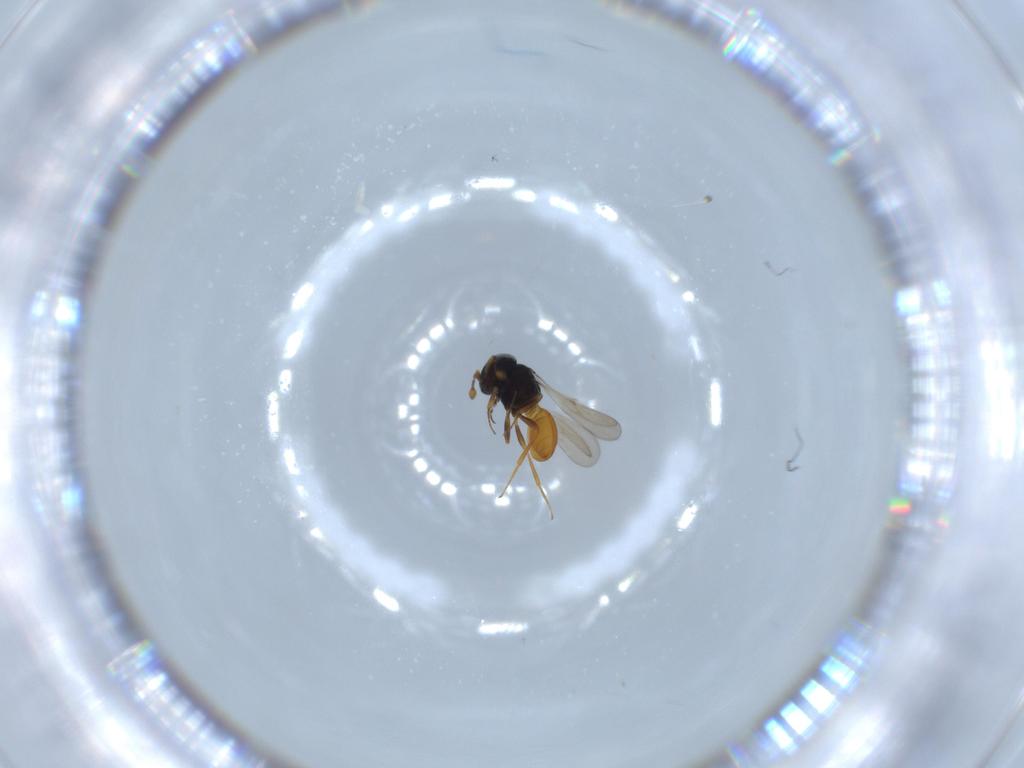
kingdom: Animalia
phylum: Arthropoda
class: Insecta
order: Hymenoptera
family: Scelionidae
